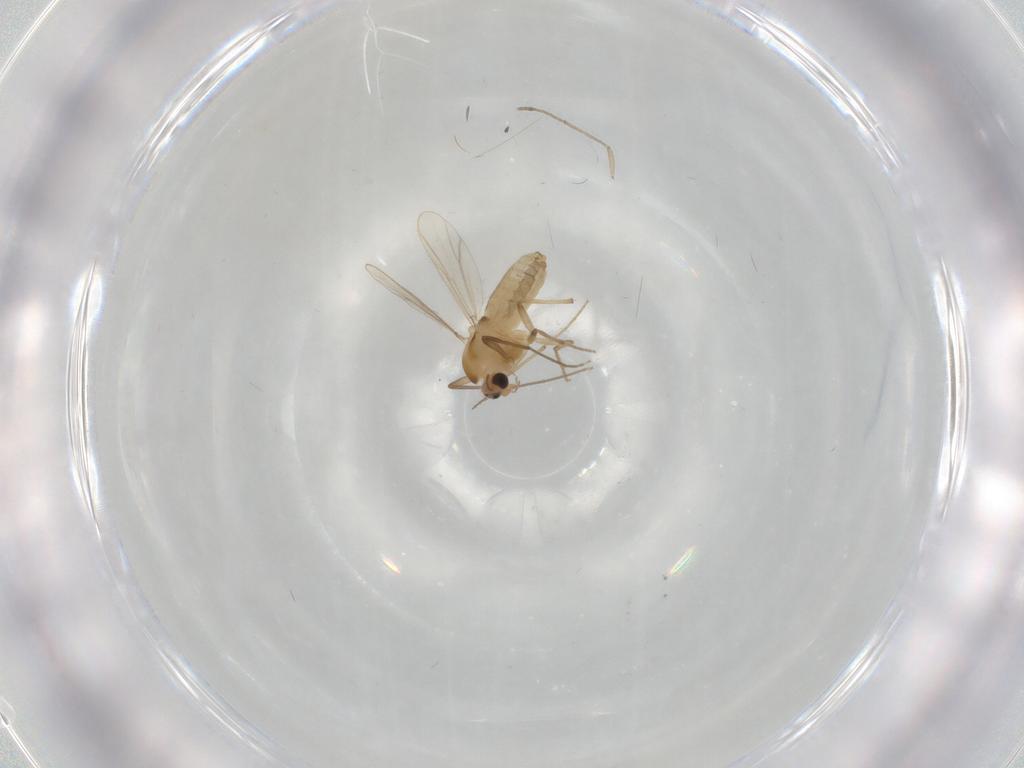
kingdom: Animalia
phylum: Arthropoda
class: Insecta
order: Diptera
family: Chironomidae
